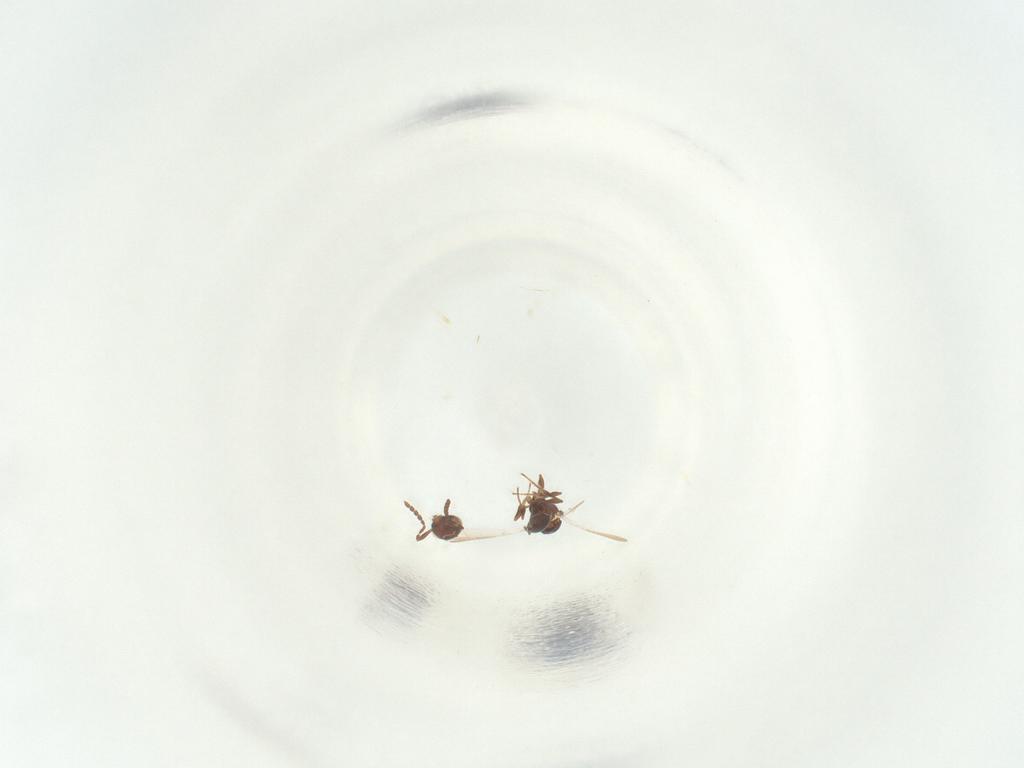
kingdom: Animalia
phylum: Arthropoda
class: Insecta
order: Hymenoptera
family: Platygastridae
